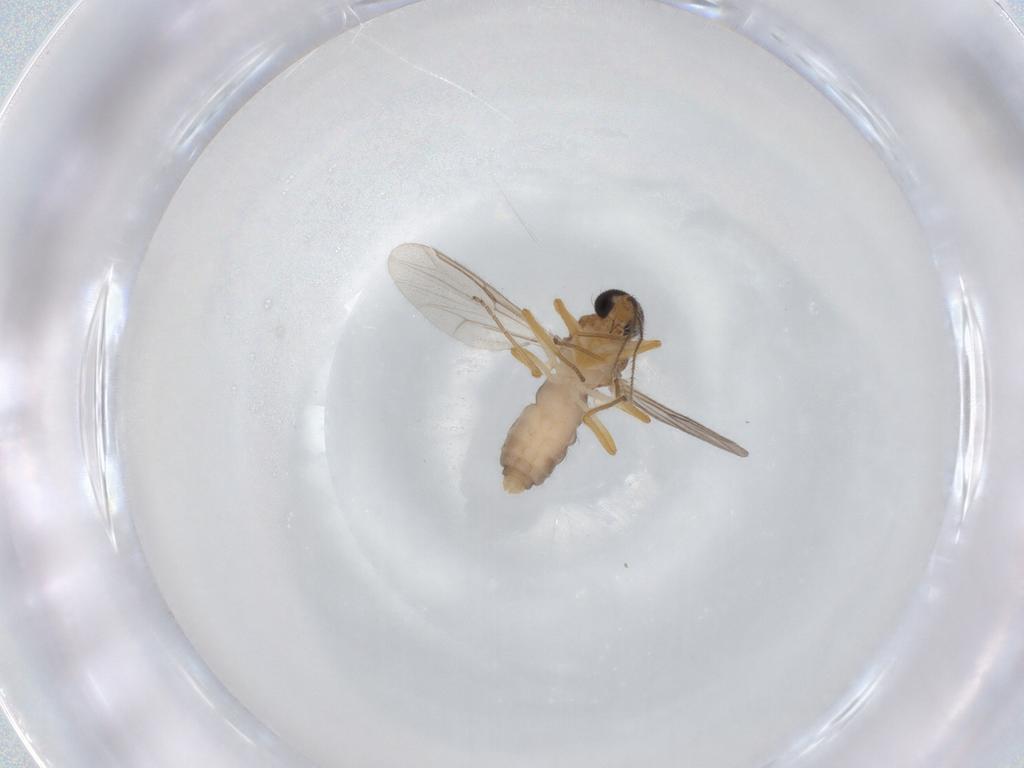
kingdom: Animalia
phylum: Arthropoda
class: Insecta
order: Diptera
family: Ceratopogonidae
